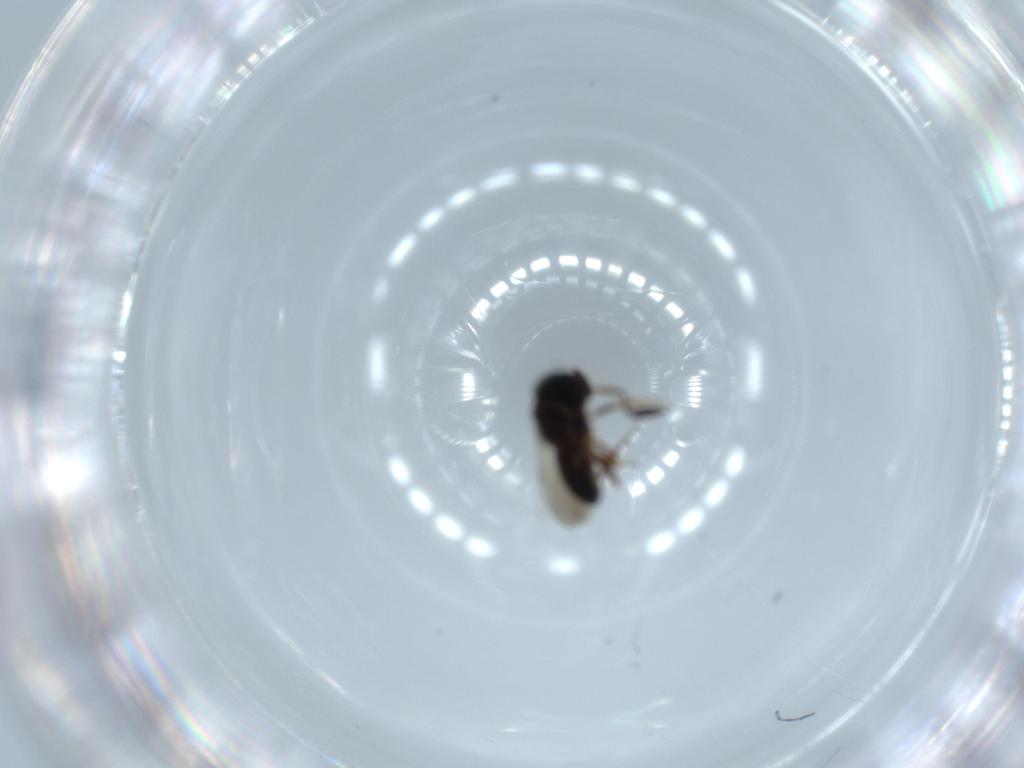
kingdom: Animalia
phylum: Arthropoda
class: Insecta
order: Coleoptera
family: Curculionidae
